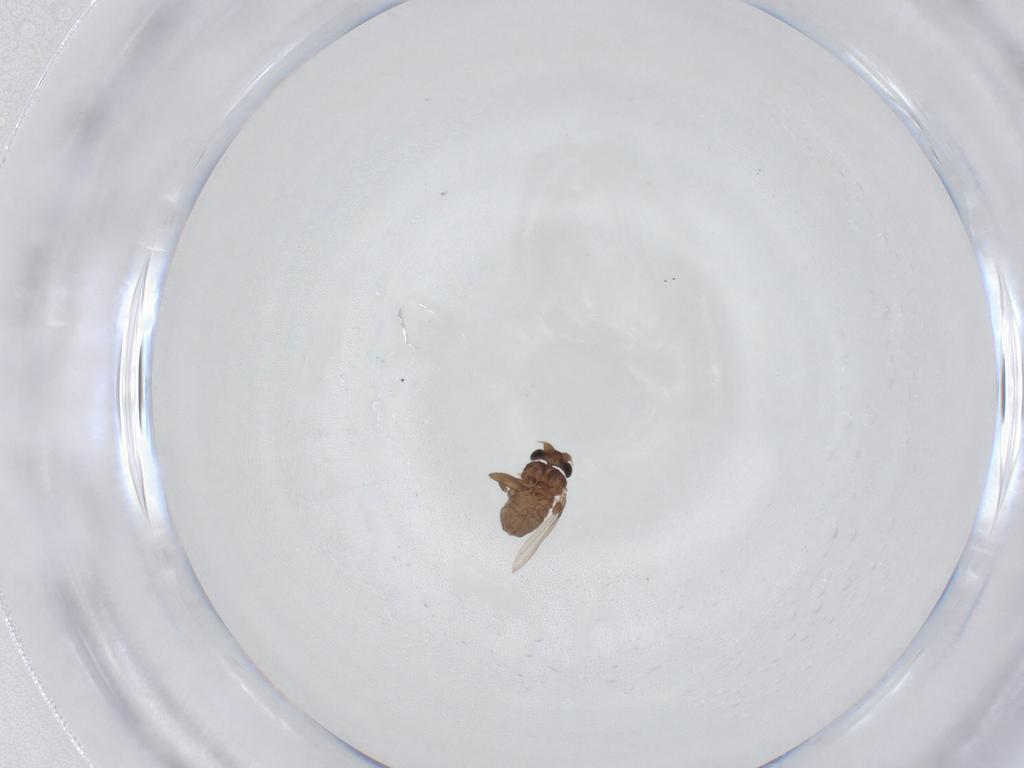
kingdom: Animalia
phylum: Arthropoda
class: Insecta
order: Diptera
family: Phoridae
